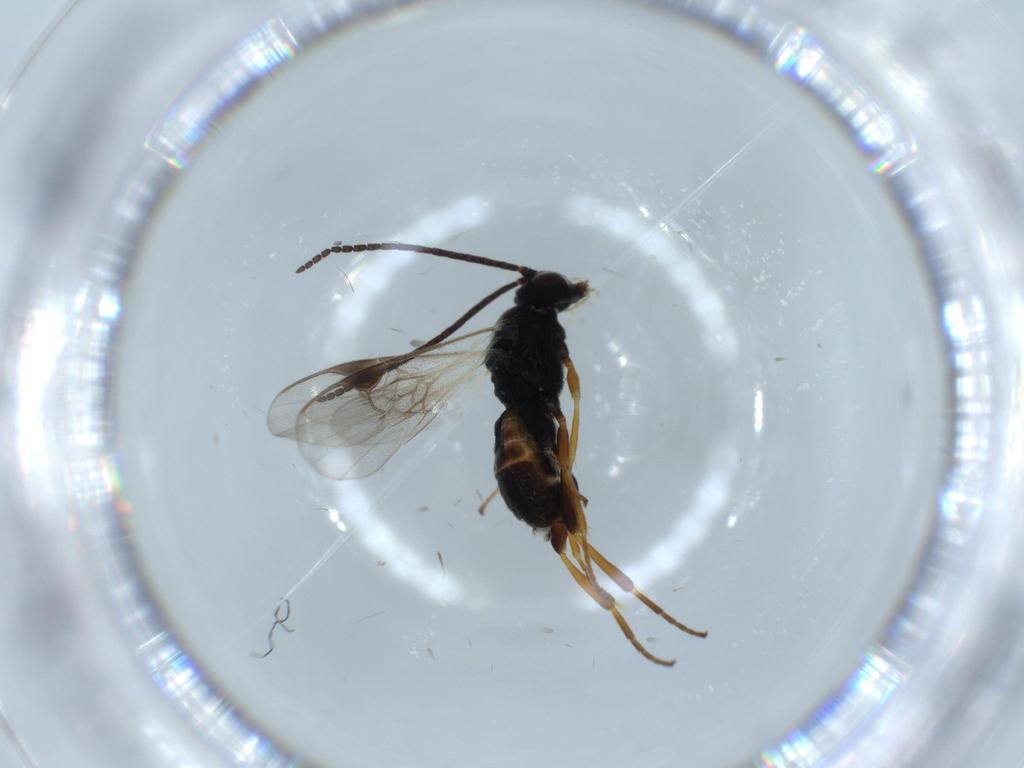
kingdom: Animalia
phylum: Arthropoda
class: Insecta
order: Hymenoptera
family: Braconidae
